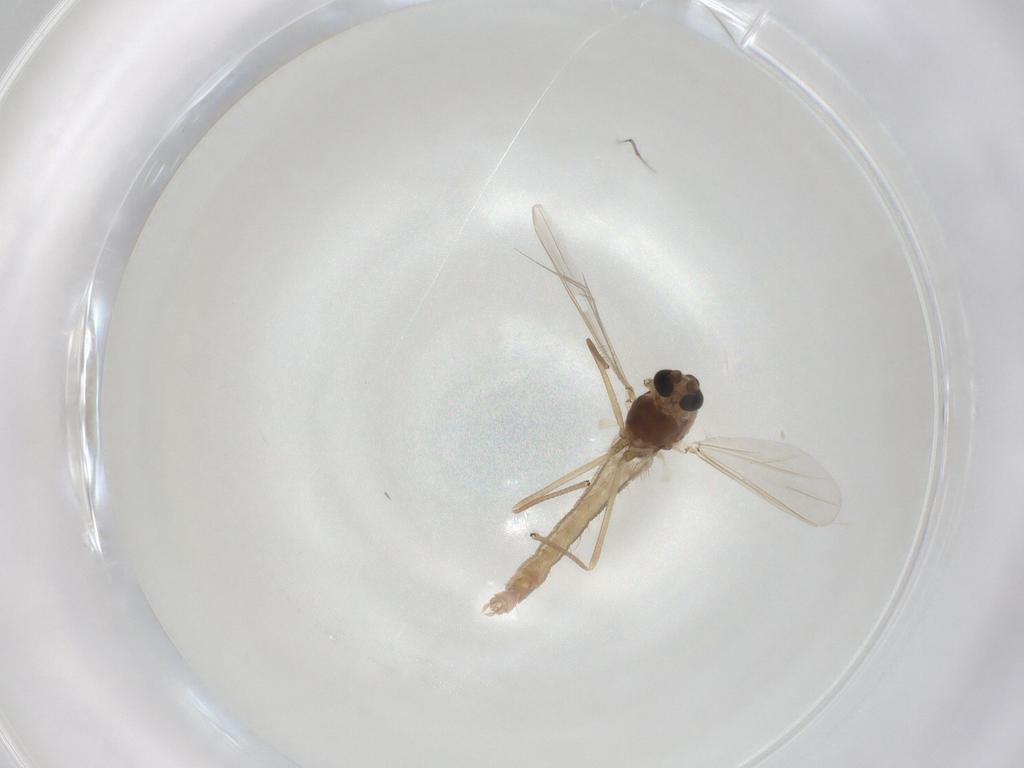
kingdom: Animalia
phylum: Arthropoda
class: Insecta
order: Diptera
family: Chironomidae
